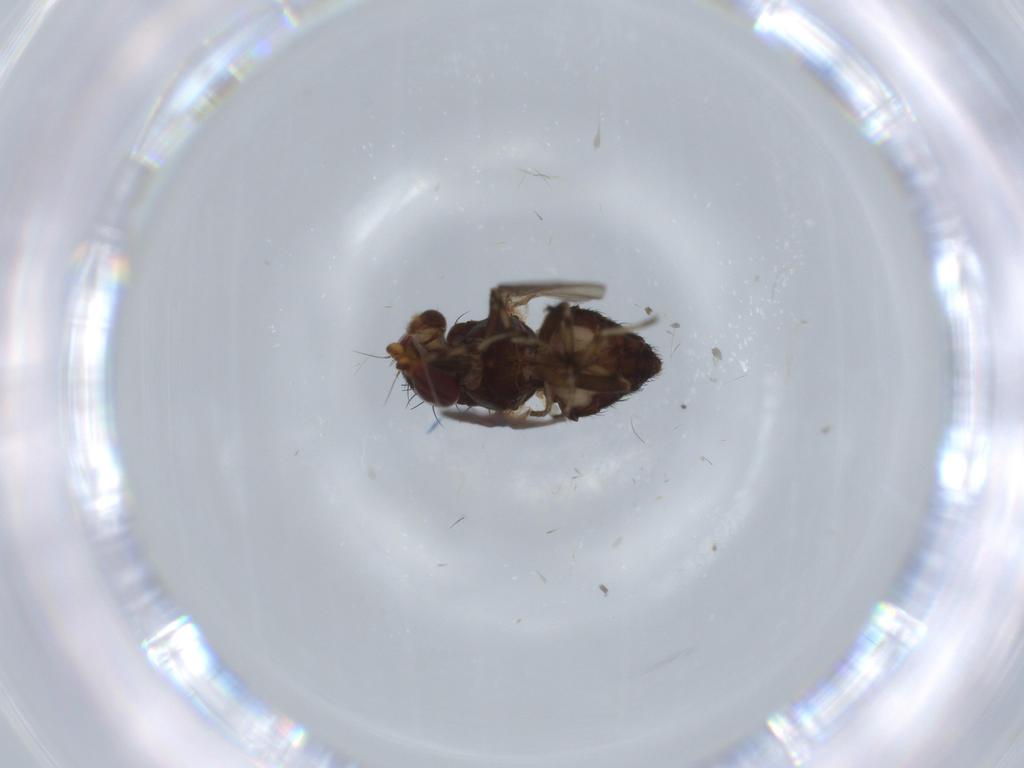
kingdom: Animalia
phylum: Arthropoda
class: Insecta
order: Diptera
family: Heleomyzidae
